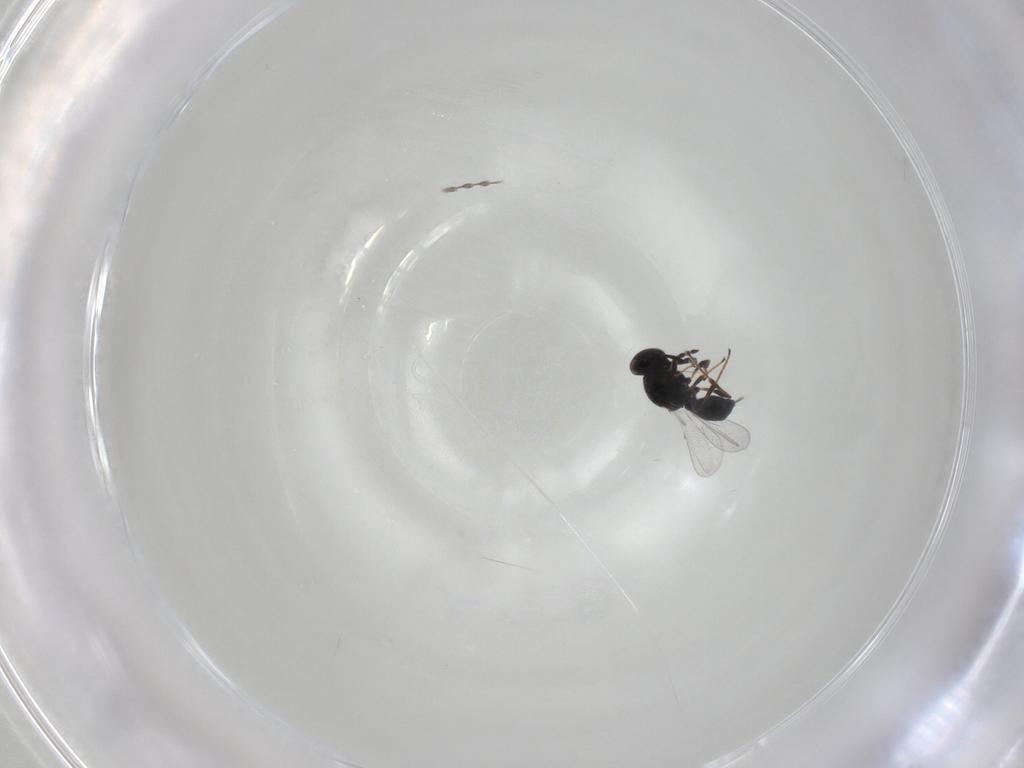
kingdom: Animalia
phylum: Arthropoda
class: Insecta
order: Hymenoptera
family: Platygastridae
